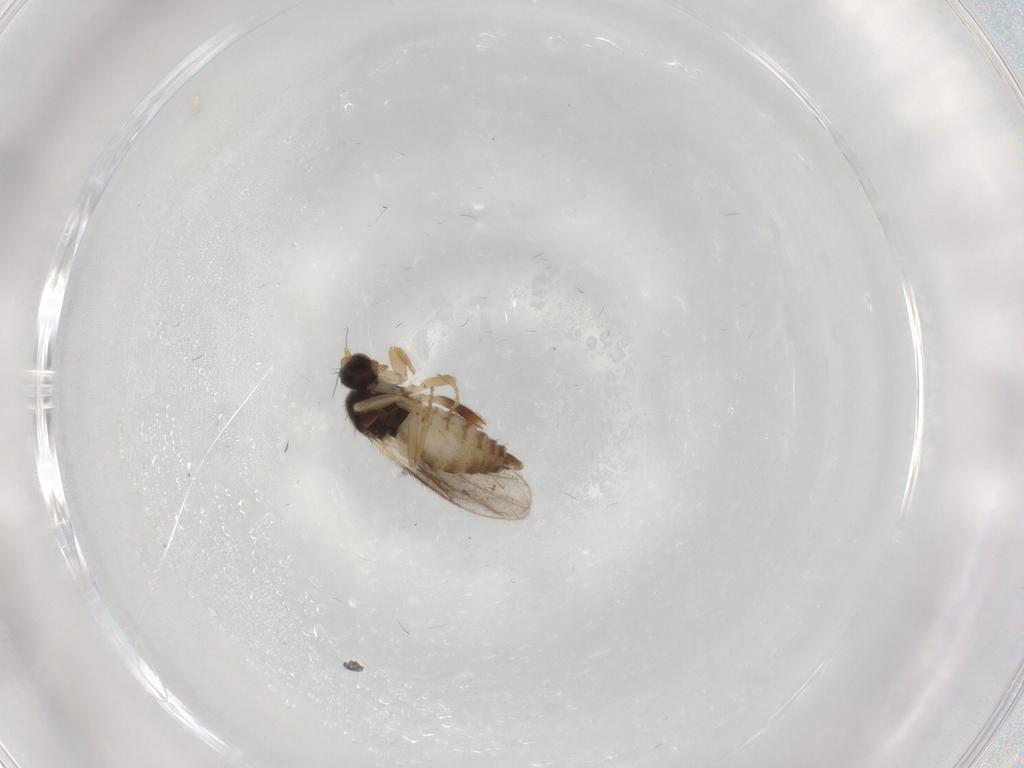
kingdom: Animalia
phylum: Arthropoda
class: Insecta
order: Diptera
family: Hybotidae
